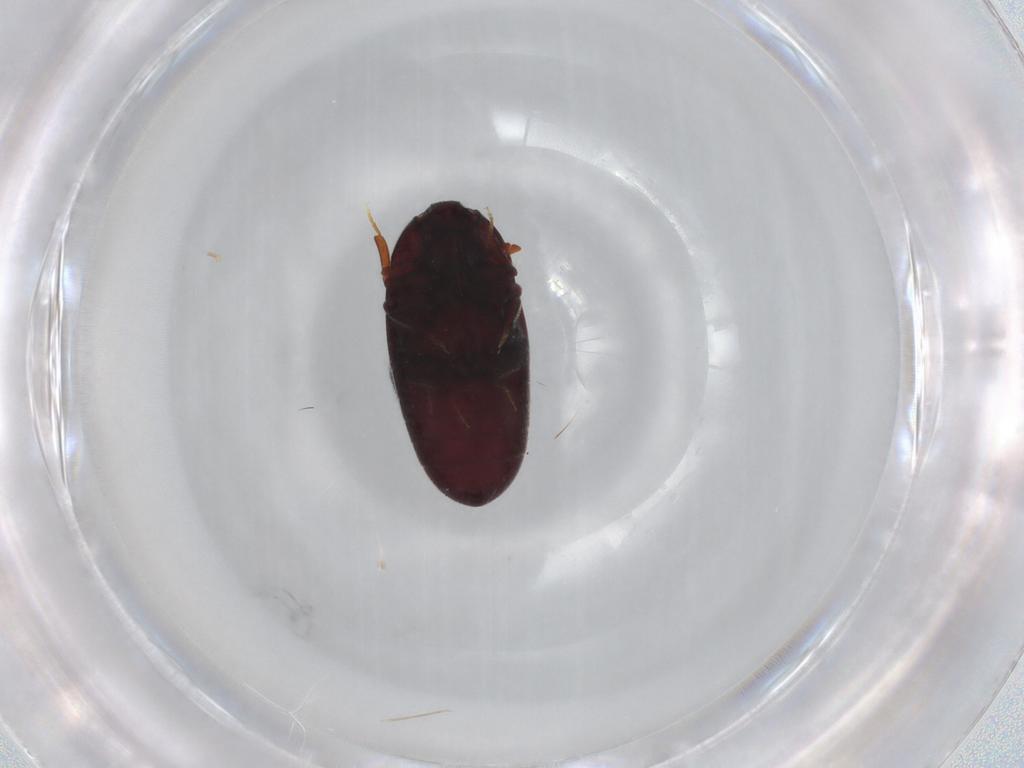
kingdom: Animalia
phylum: Arthropoda
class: Insecta
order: Coleoptera
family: Throscidae
